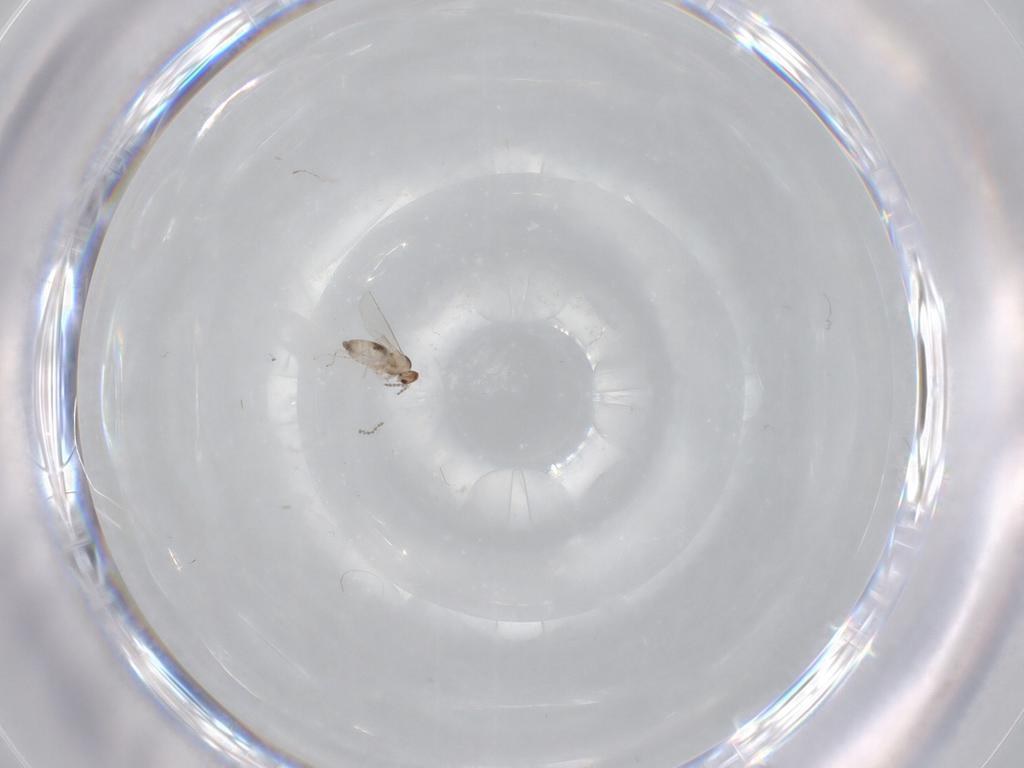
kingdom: Animalia
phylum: Arthropoda
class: Insecta
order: Diptera
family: Cecidomyiidae
